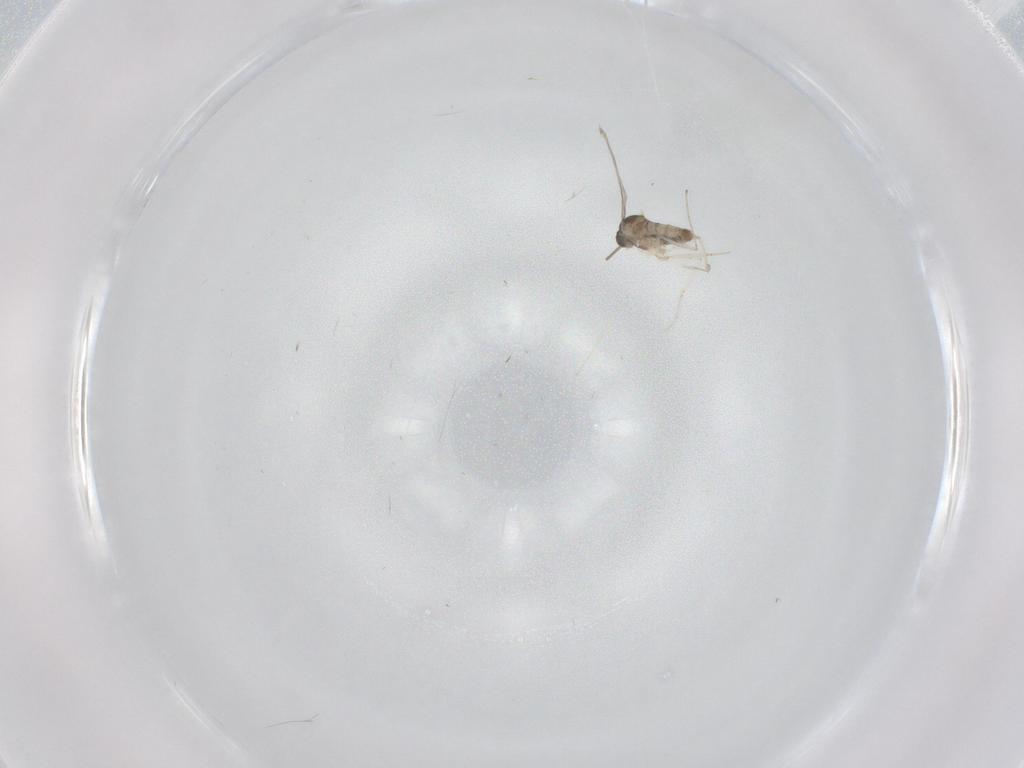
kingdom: Animalia
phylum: Arthropoda
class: Insecta
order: Diptera
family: Cecidomyiidae
